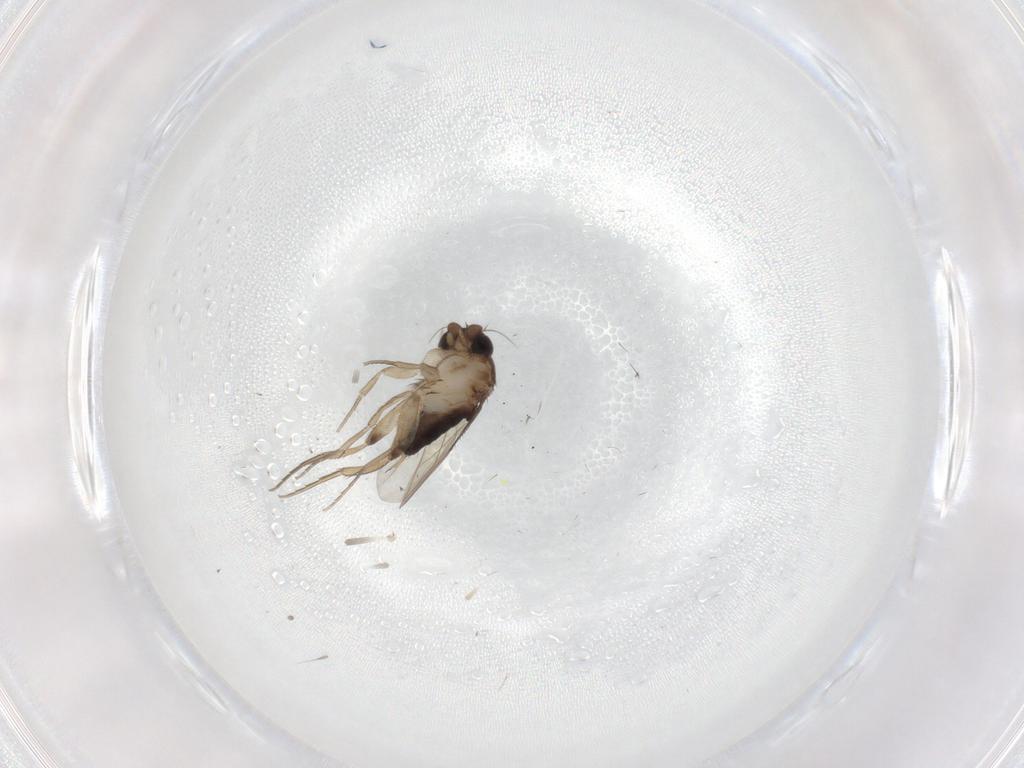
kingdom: Animalia
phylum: Arthropoda
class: Insecta
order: Diptera
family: Phoridae
